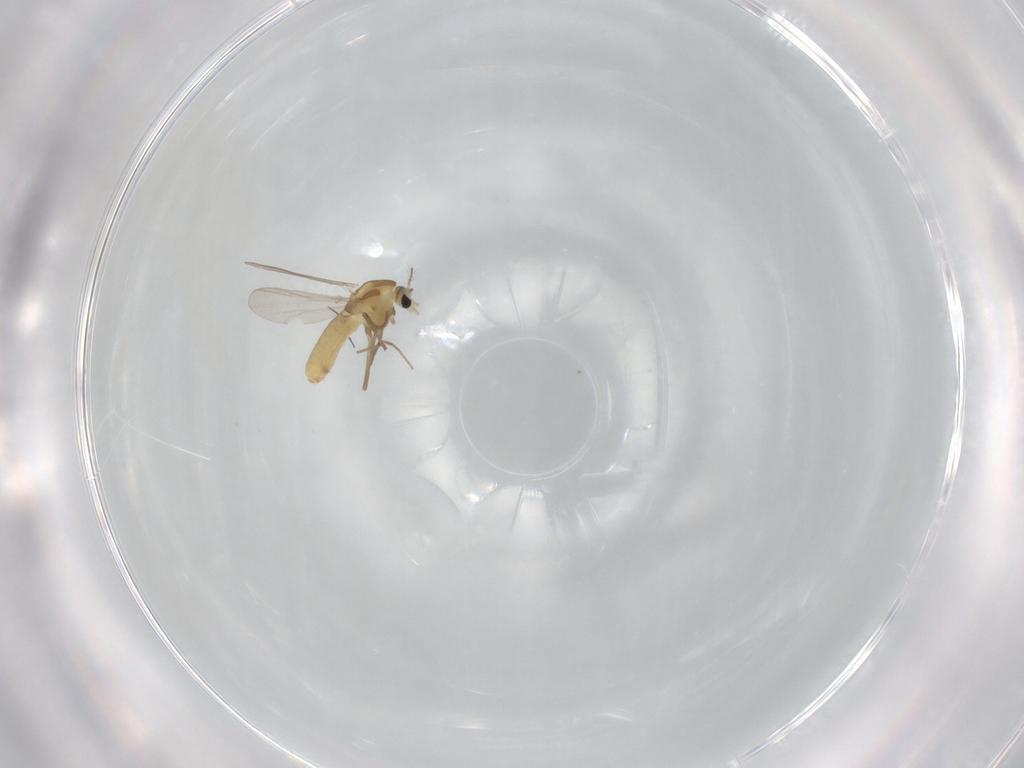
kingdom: Animalia
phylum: Arthropoda
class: Insecta
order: Diptera
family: Chironomidae
